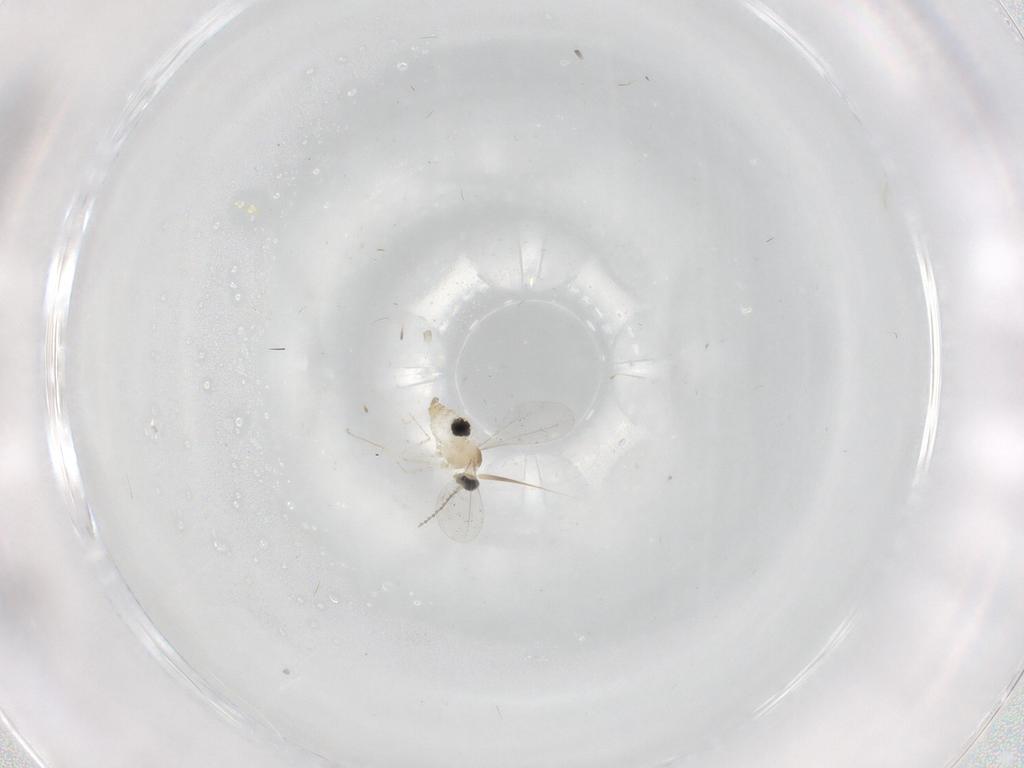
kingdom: Animalia
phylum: Arthropoda
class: Insecta
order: Diptera
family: Cecidomyiidae
